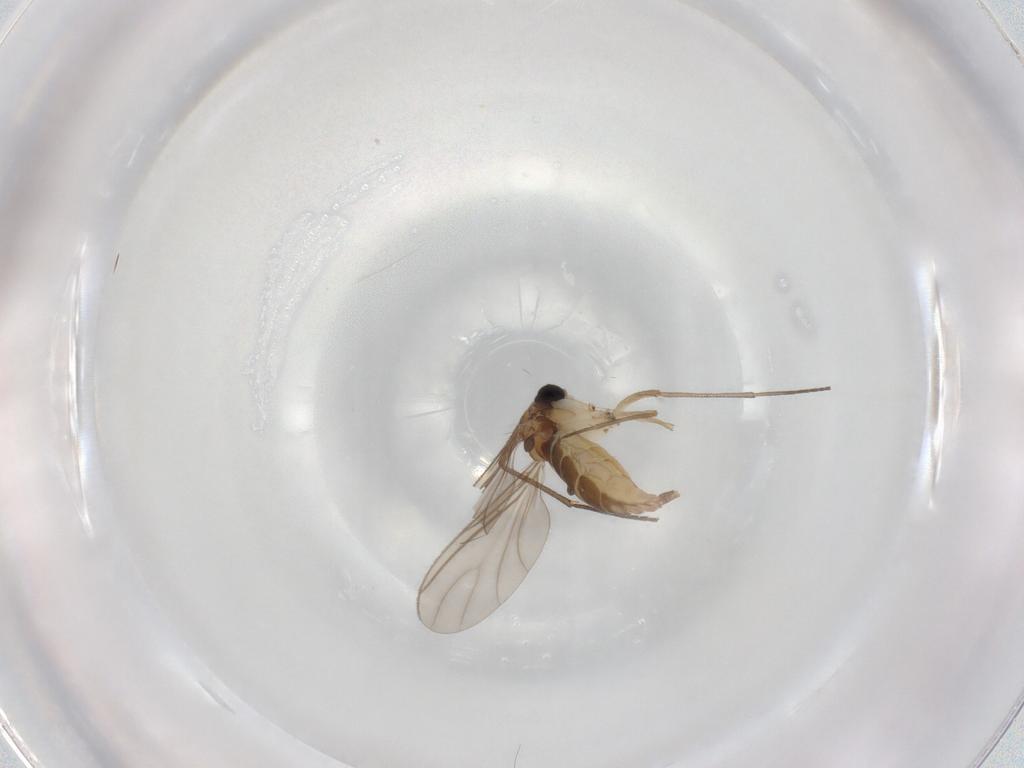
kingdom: Animalia
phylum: Arthropoda
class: Insecta
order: Diptera
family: Sciaridae
